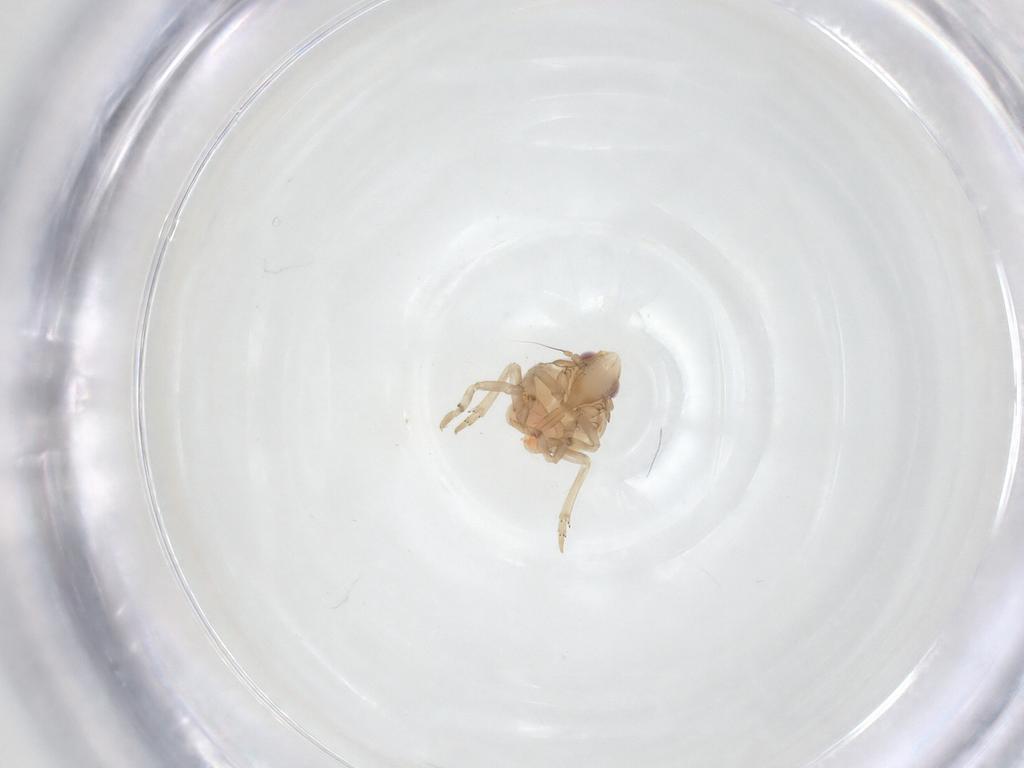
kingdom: Animalia
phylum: Arthropoda
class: Insecta
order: Hemiptera
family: Ricaniidae
